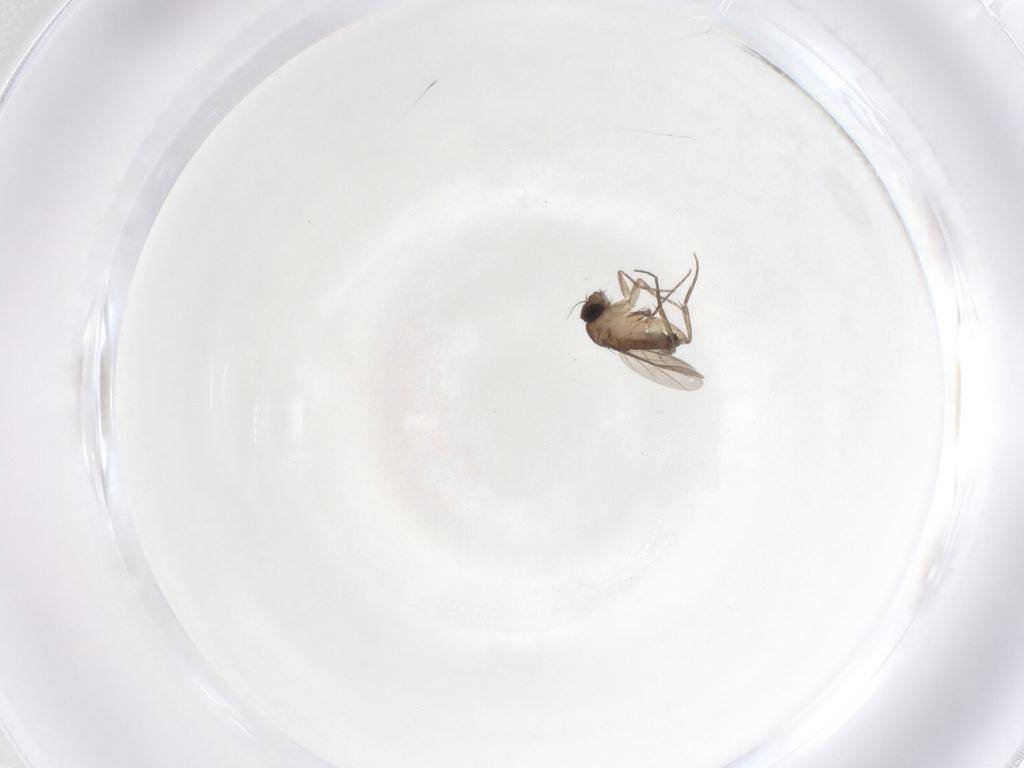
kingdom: Animalia
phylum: Arthropoda
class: Insecta
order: Diptera
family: Phoridae
